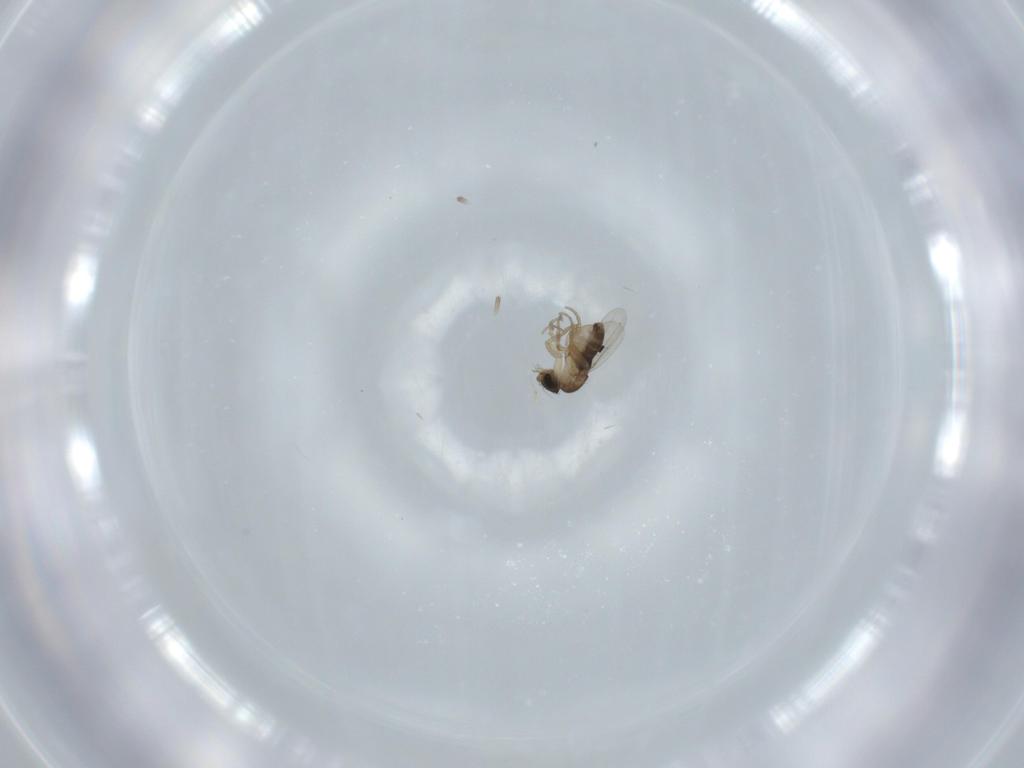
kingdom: Animalia
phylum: Arthropoda
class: Insecta
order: Diptera
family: Phoridae
